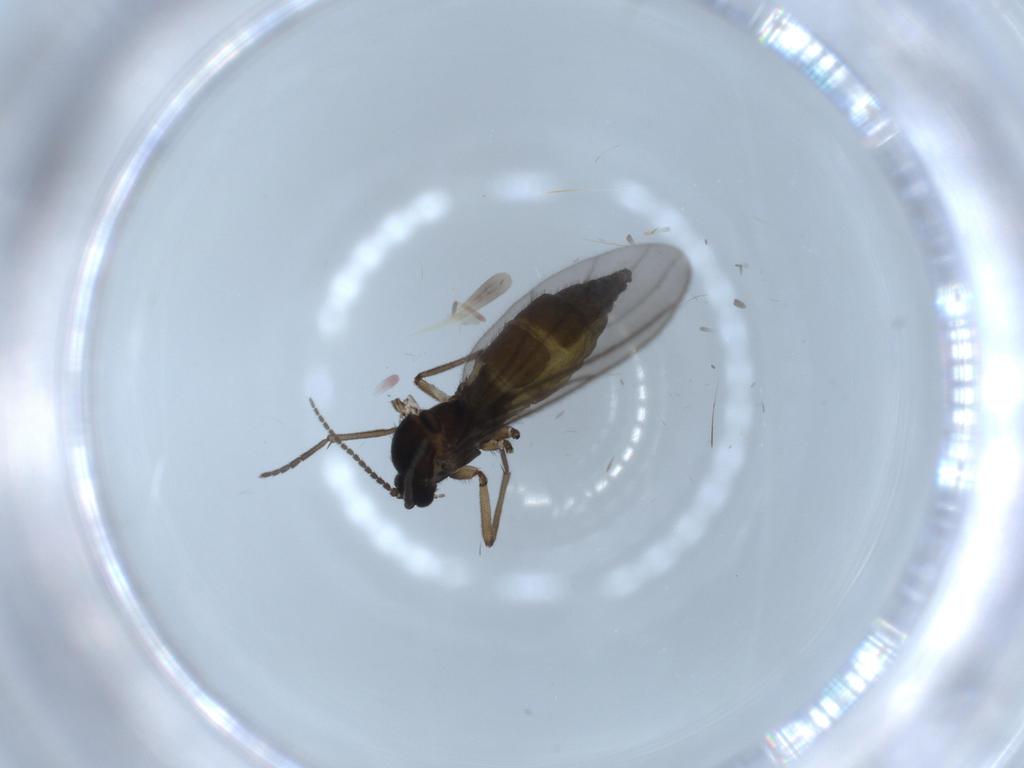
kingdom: Animalia
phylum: Arthropoda
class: Insecta
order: Diptera
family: Sciaridae
